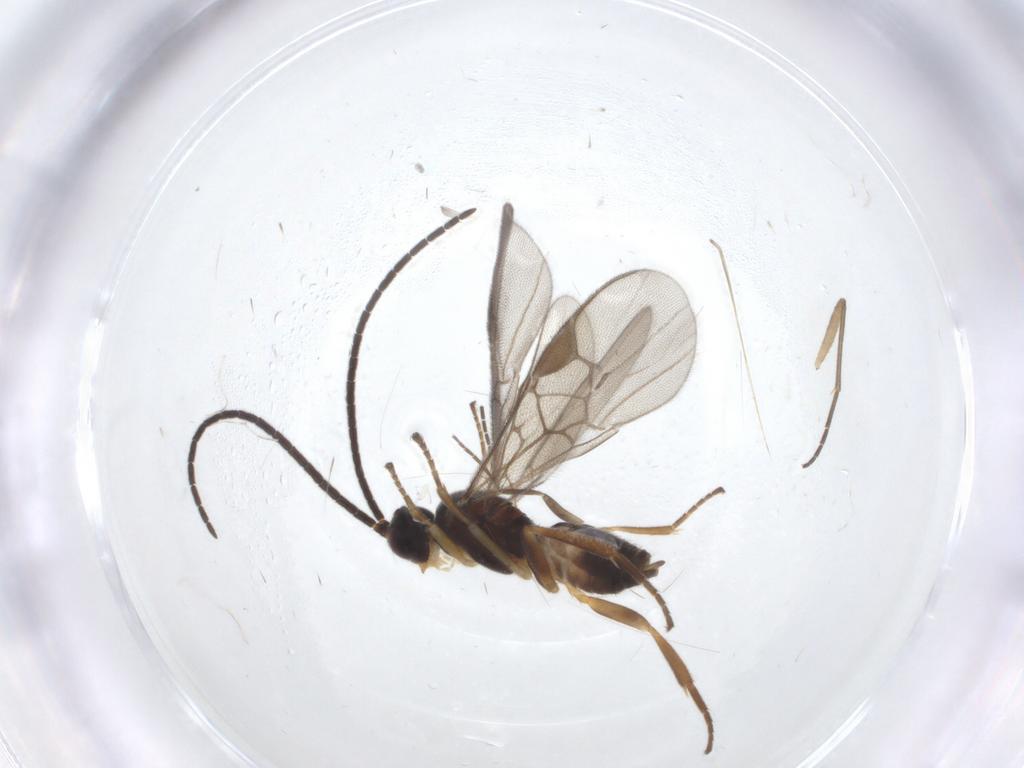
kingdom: Animalia
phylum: Arthropoda
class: Insecta
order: Hymenoptera
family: Braconidae
